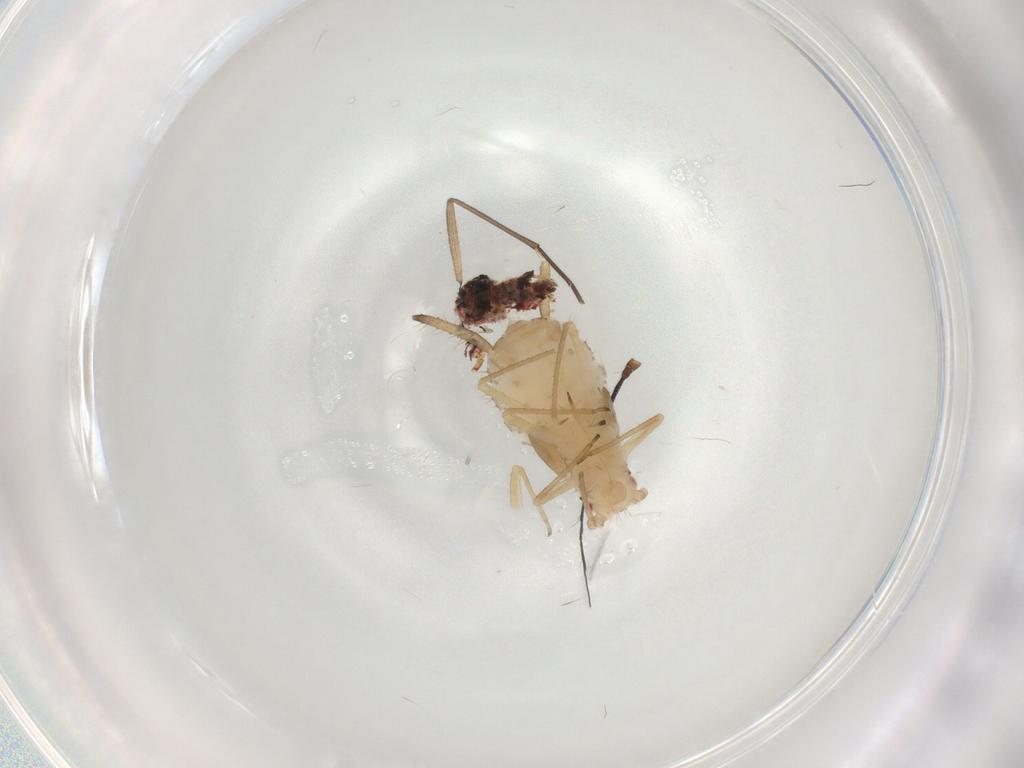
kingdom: Animalia
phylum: Arthropoda
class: Insecta
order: Hemiptera
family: Aphididae
